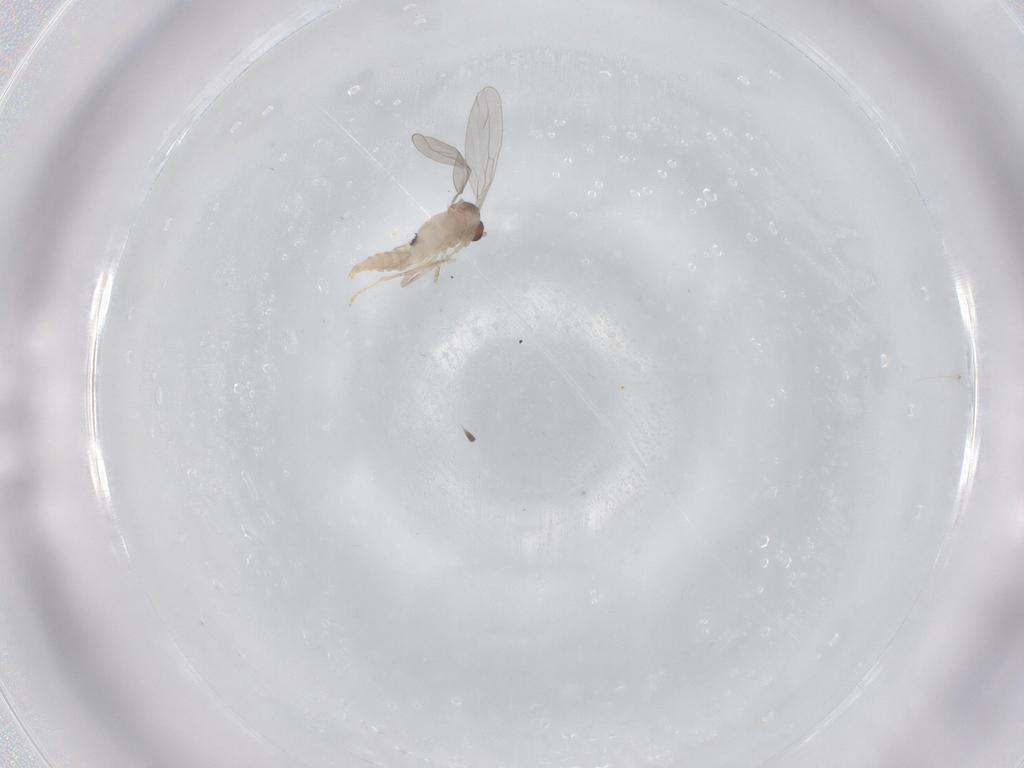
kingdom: Animalia
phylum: Arthropoda
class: Insecta
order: Diptera
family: Cecidomyiidae
